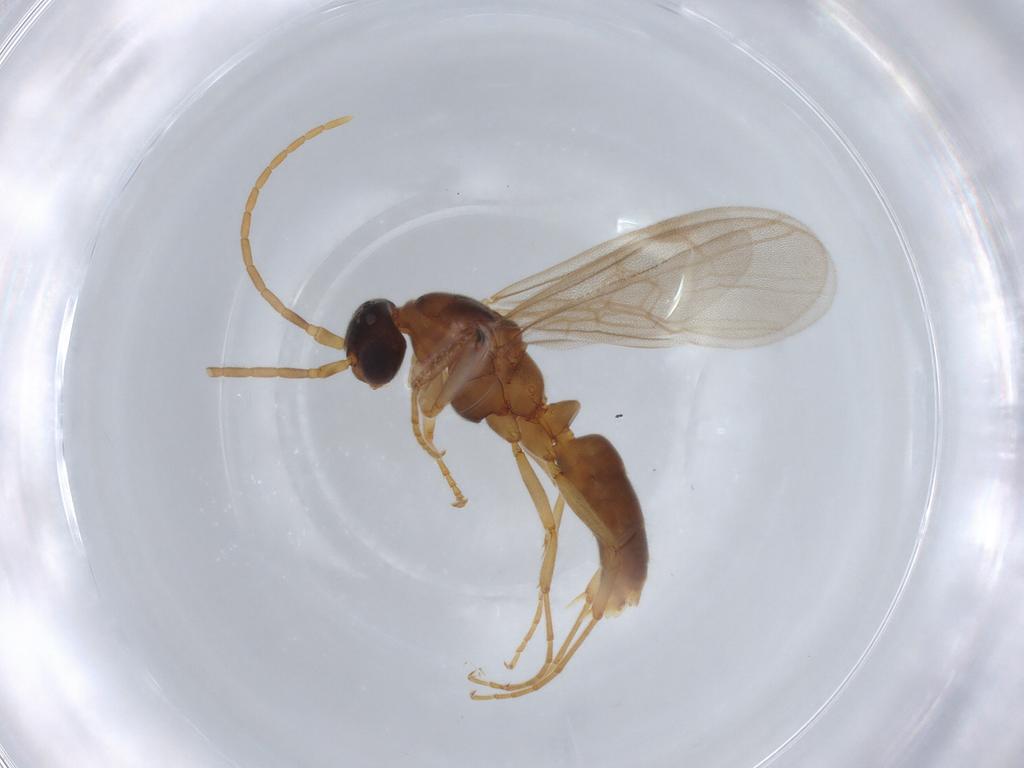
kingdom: Animalia
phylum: Arthropoda
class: Insecta
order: Hymenoptera
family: Formicidae
